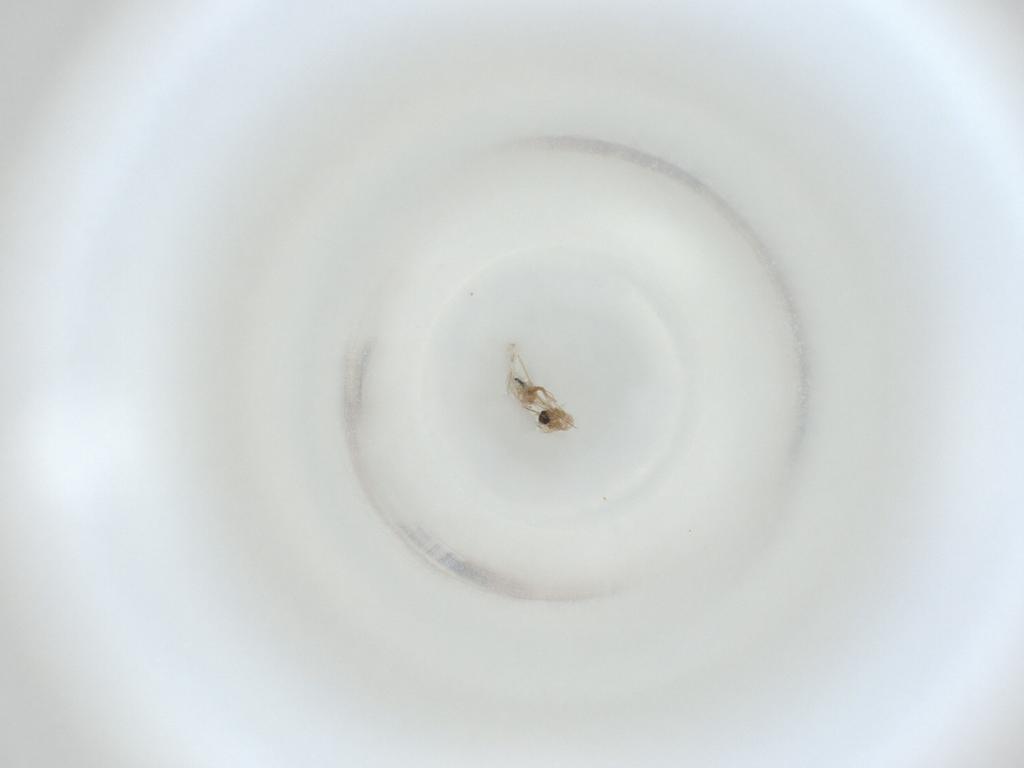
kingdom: Animalia
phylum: Arthropoda
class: Insecta
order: Diptera
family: Cecidomyiidae
